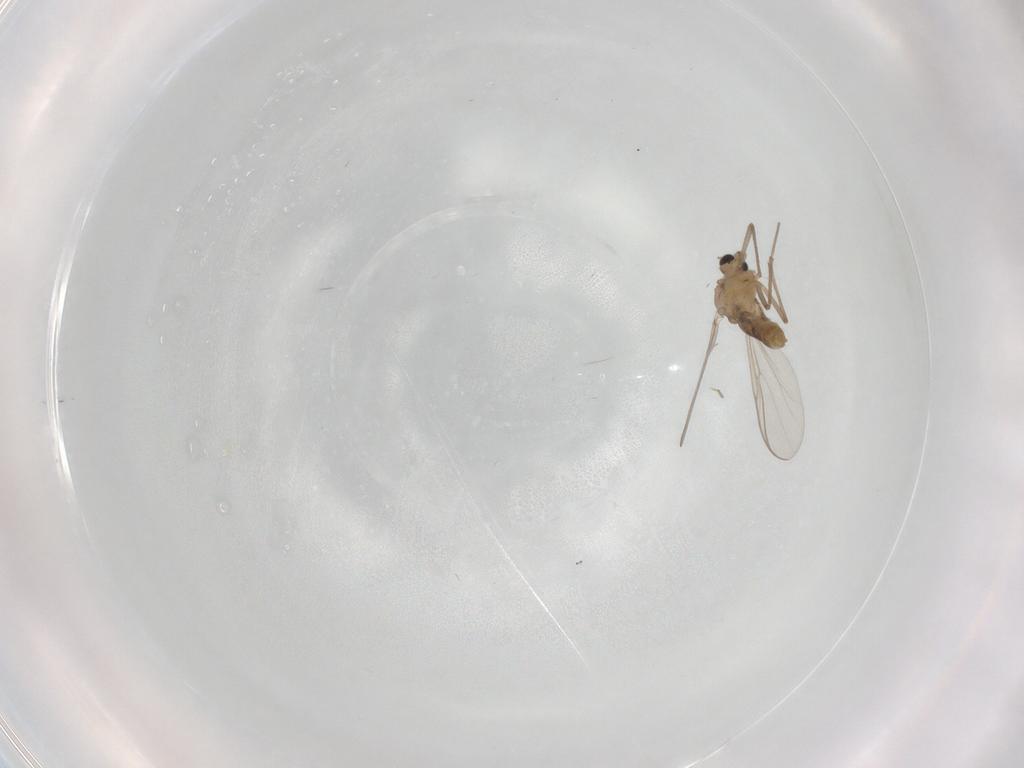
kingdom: Animalia
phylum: Arthropoda
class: Insecta
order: Diptera
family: Chironomidae
